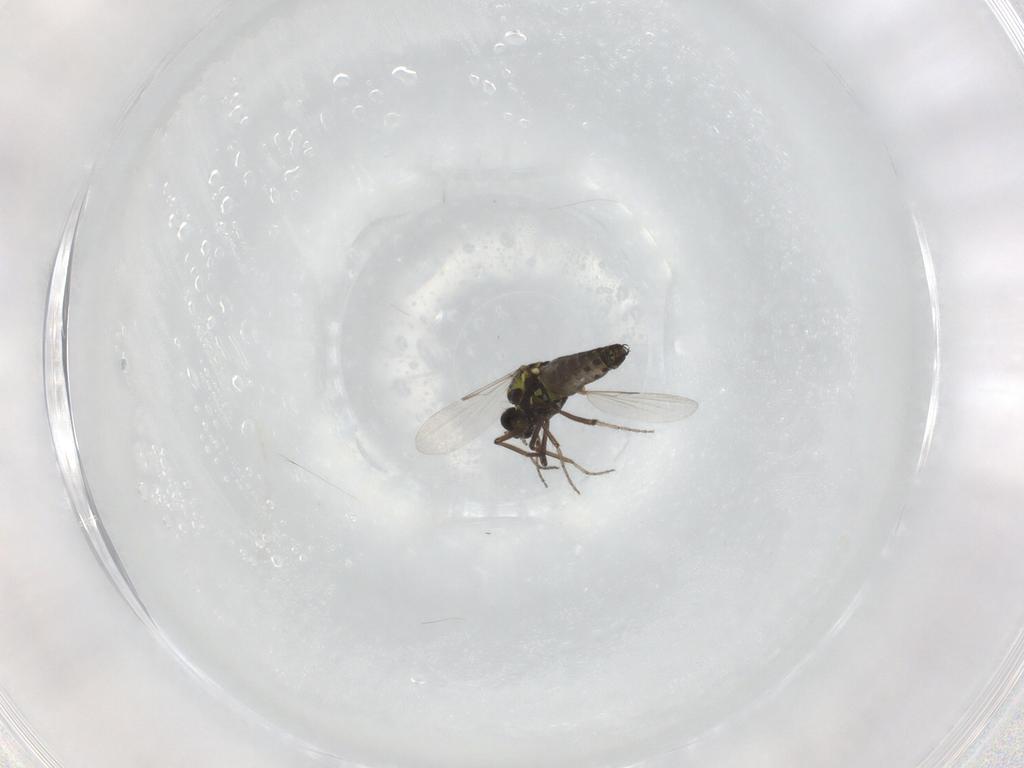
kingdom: Animalia
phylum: Arthropoda
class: Insecta
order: Diptera
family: Ceratopogonidae
